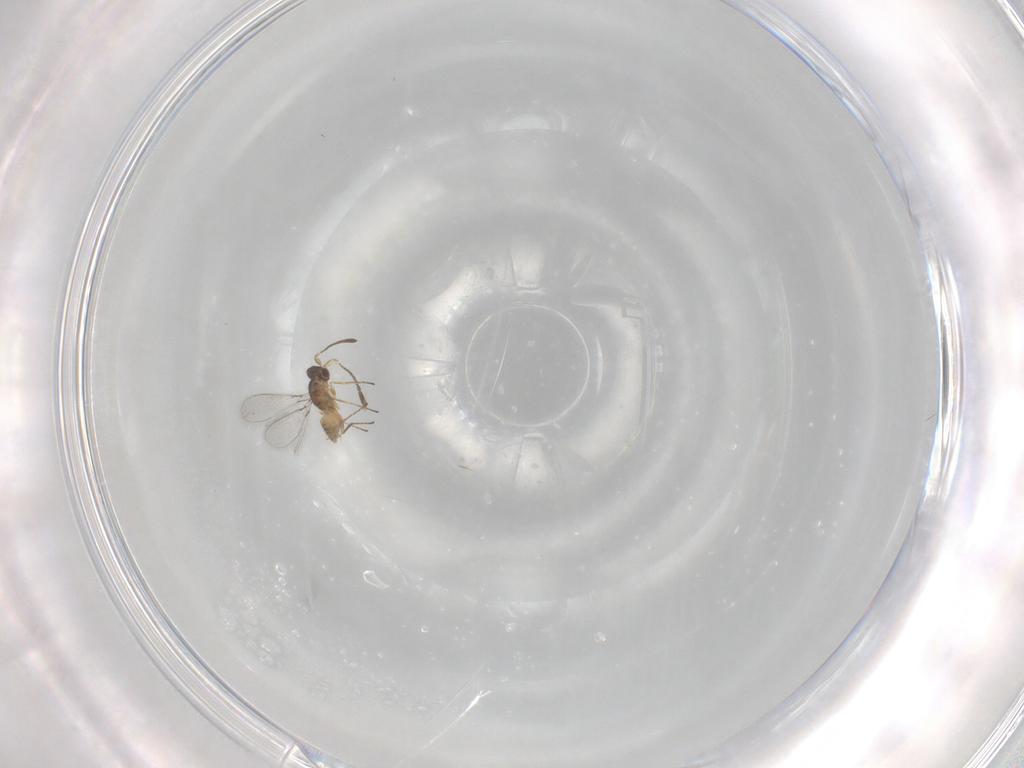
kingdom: Animalia
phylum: Arthropoda
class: Insecta
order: Hymenoptera
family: Mymaridae
